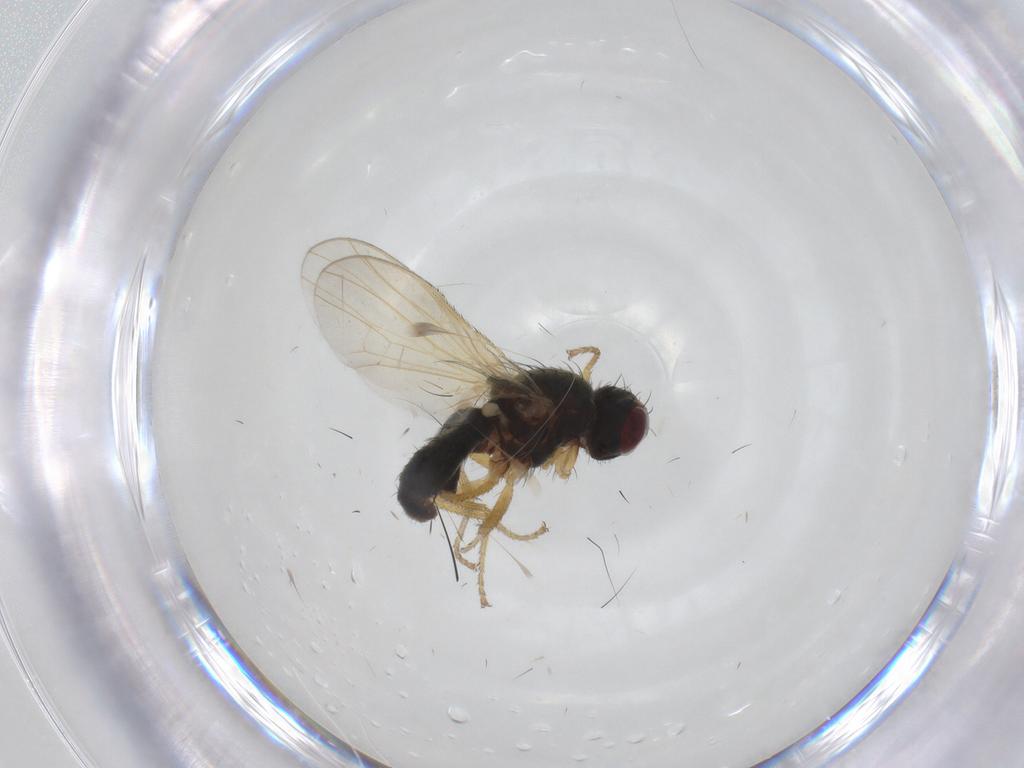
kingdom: Animalia
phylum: Arthropoda
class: Insecta
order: Diptera
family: Heleomyzidae
